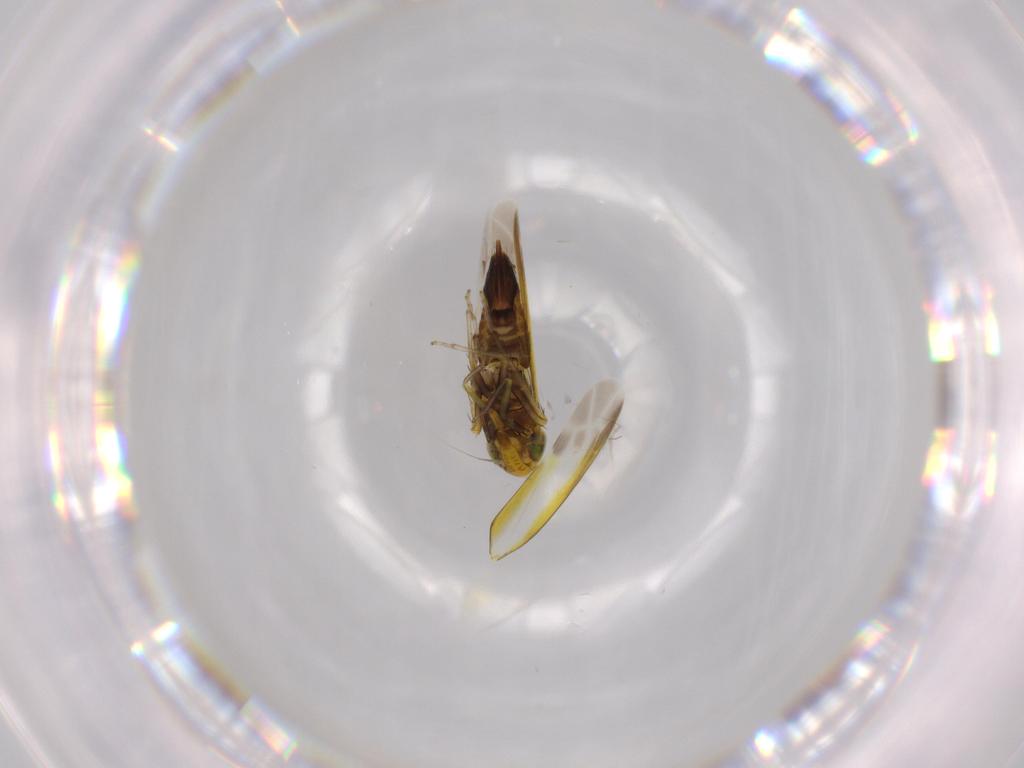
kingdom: Animalia
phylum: Arthropoda
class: Insecta
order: Hemiptera
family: Cicadellidae
